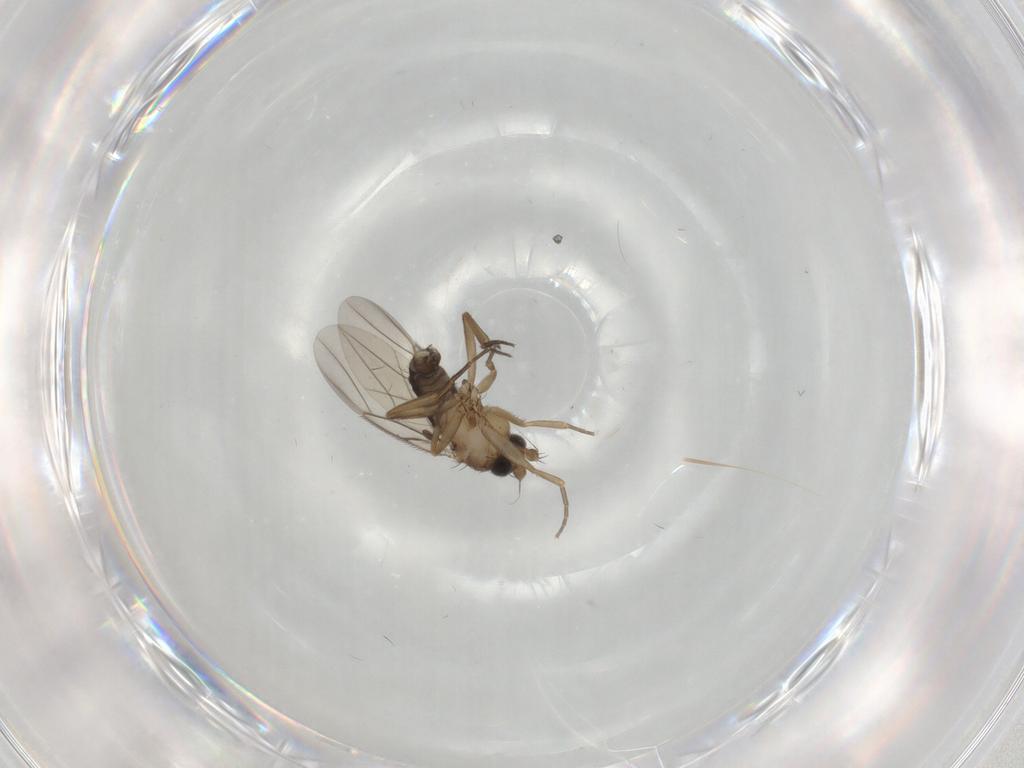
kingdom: Animalia
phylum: Arthropoda
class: Insecta
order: Diptera
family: Phoridae
